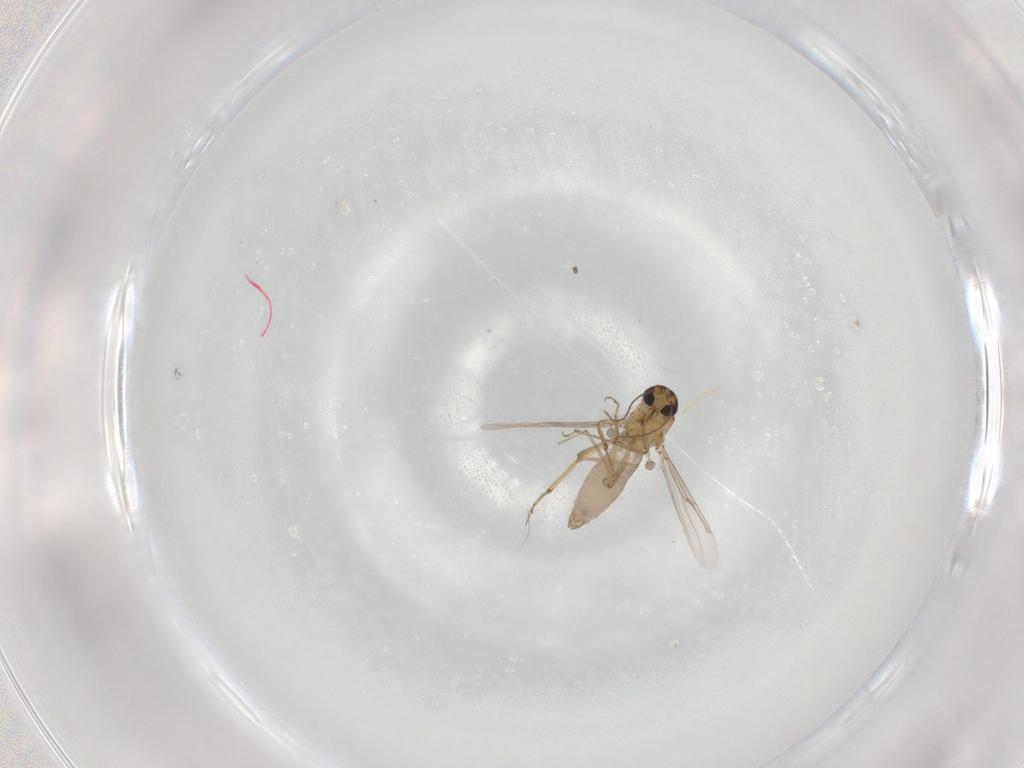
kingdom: Animalia
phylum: Arthropoda
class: Insecta
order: Diptera
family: Ceratopogonidae
